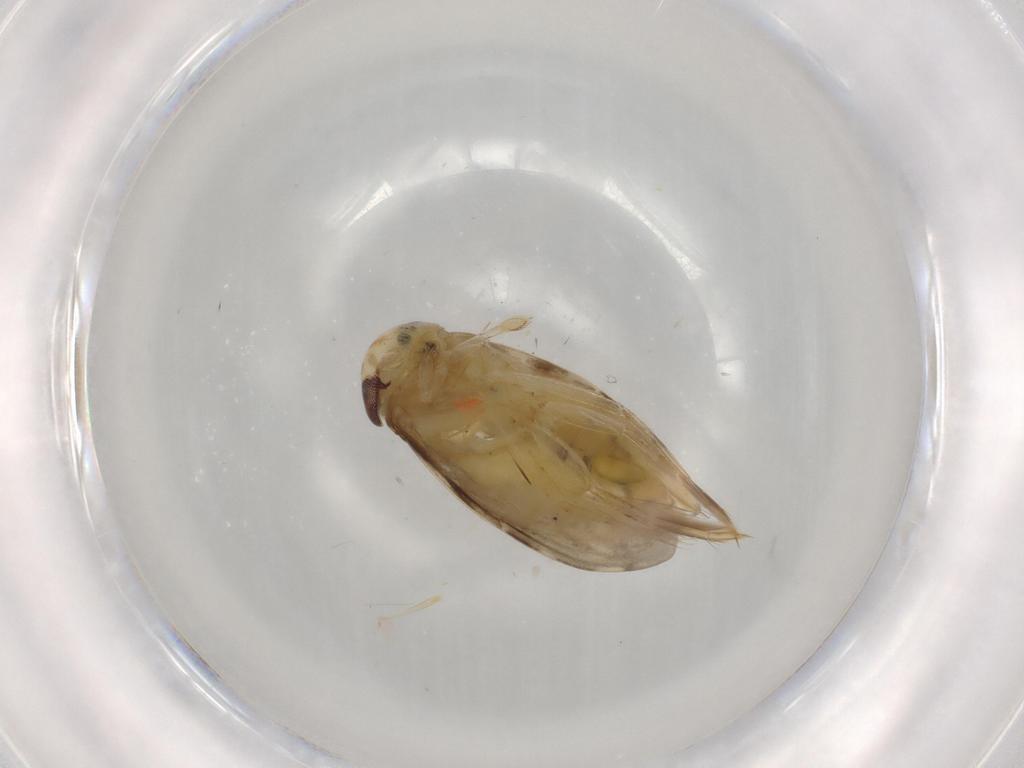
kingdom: Animalia
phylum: Arthropoda
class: Insecta
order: Hemiptera
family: Corixidae
